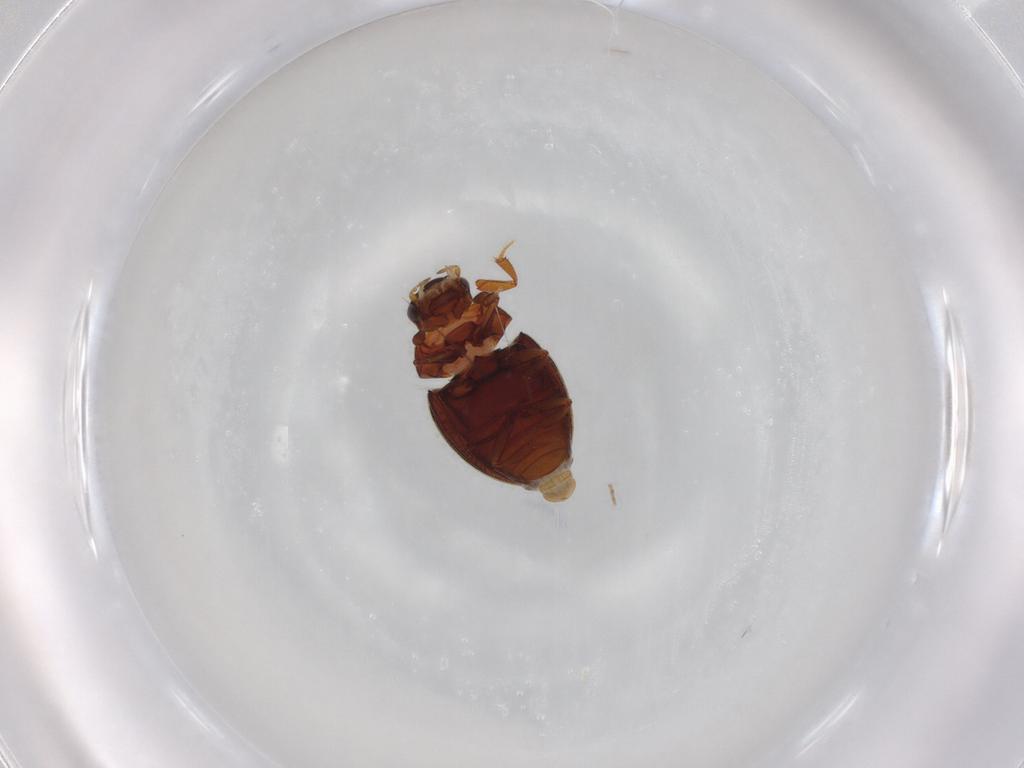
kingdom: Animalia
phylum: Arthropoda
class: Insecta
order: Coleoptera
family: Hydrophilidae
